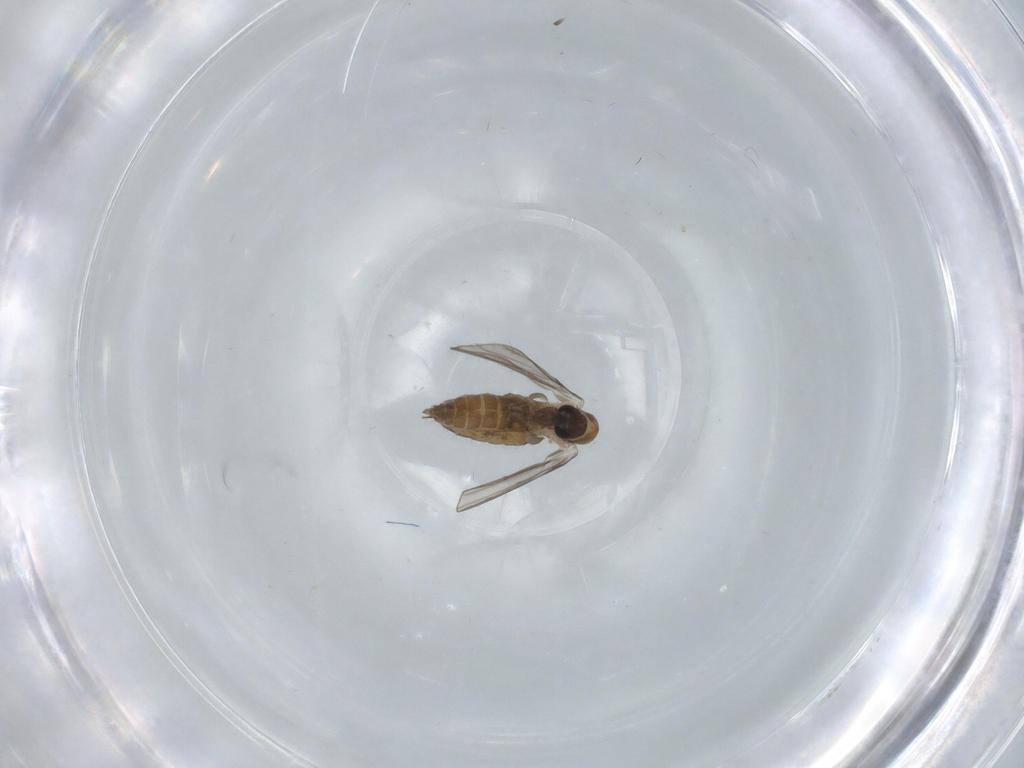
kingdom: Animalia
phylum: Arthropoda
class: Insecta
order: Diptera
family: Psychodidae
